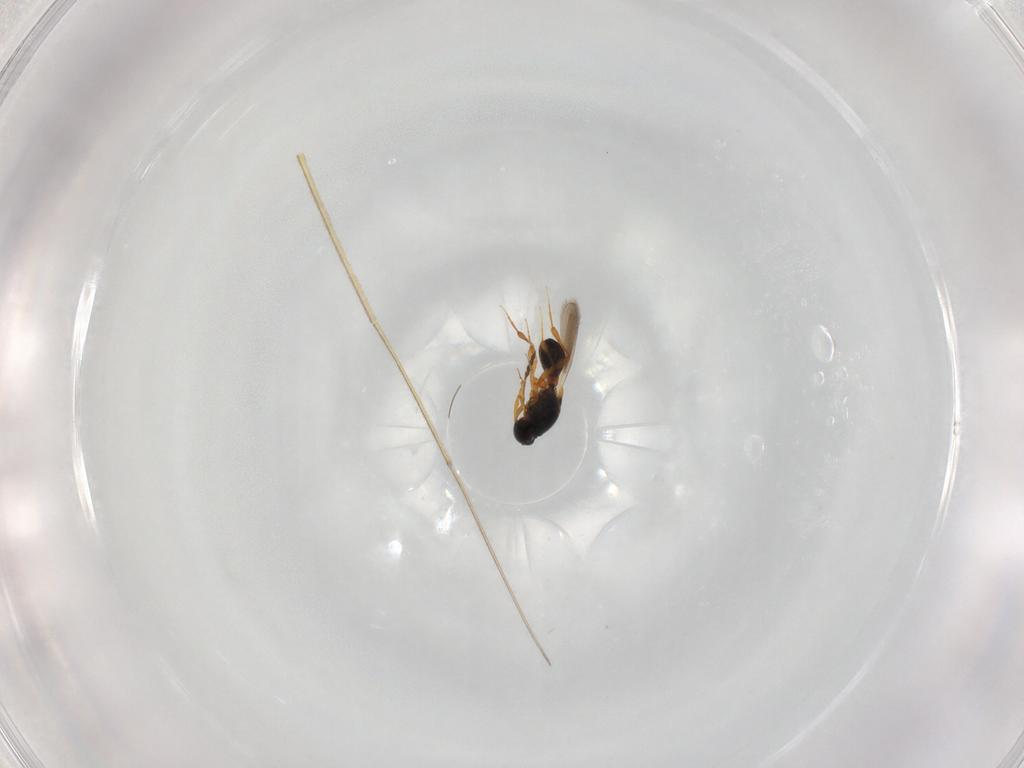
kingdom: Animalia
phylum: Arthropoda
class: Insecta
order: Hymenoptera
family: Platygastridae
